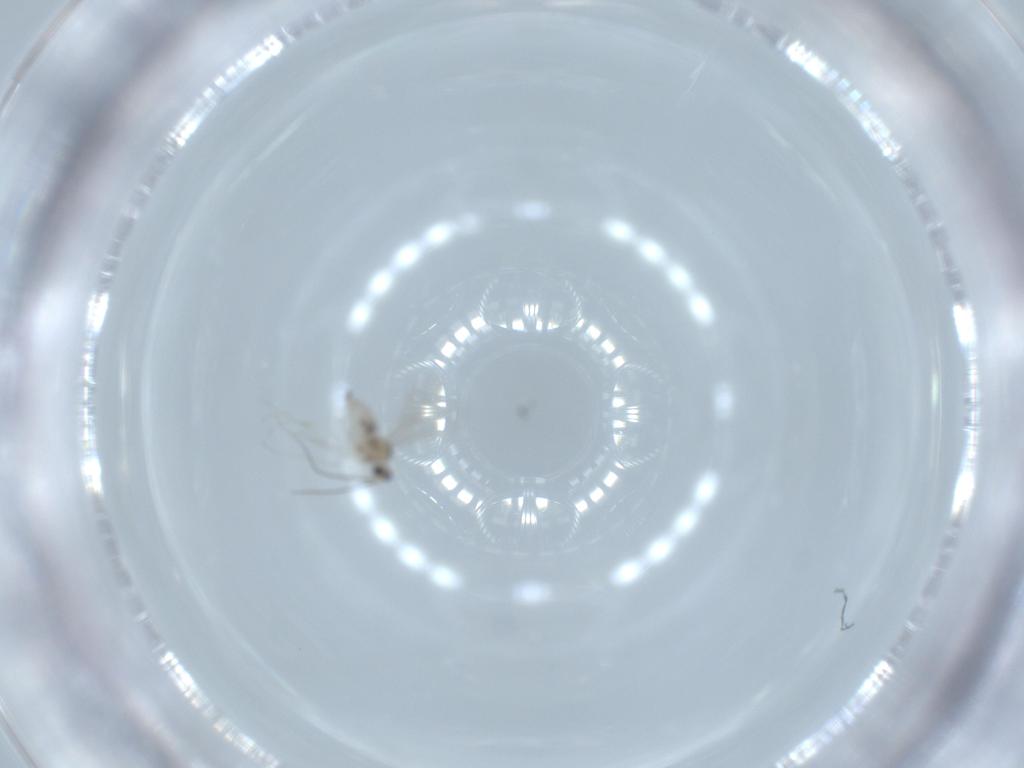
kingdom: Animalia
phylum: Arthropoda
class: Insecta
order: Diptera
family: Cecidomyiidae
